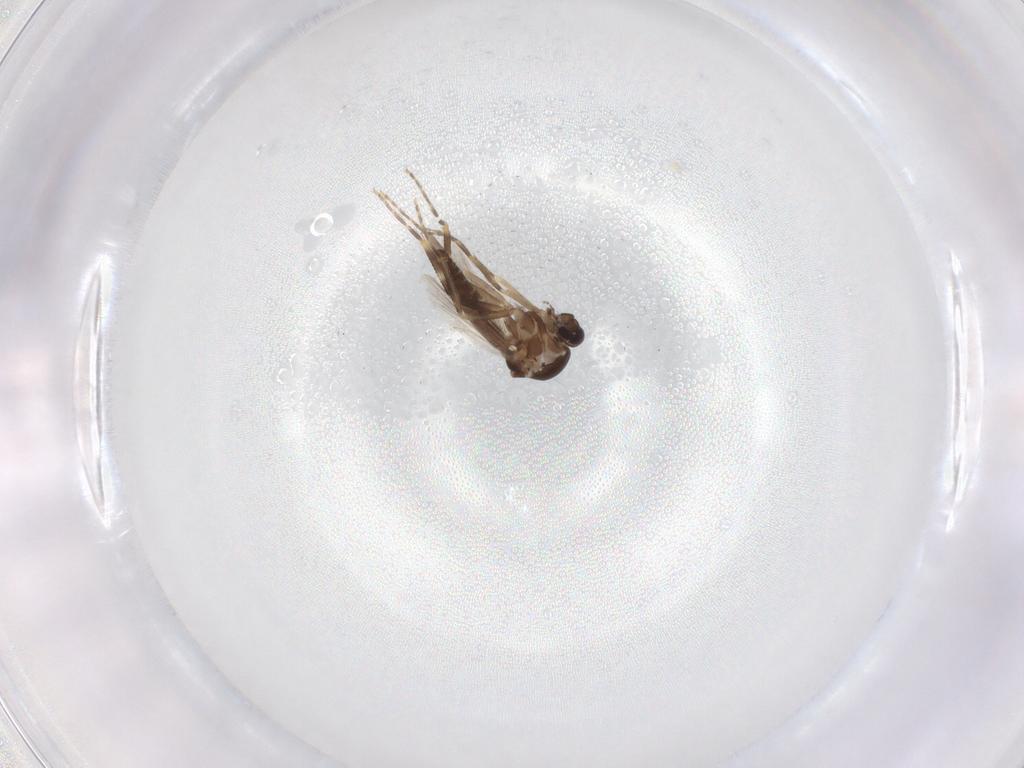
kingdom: Animalia
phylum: Arthropoda
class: Insecta
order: Diptera
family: Ceratopogonidae
